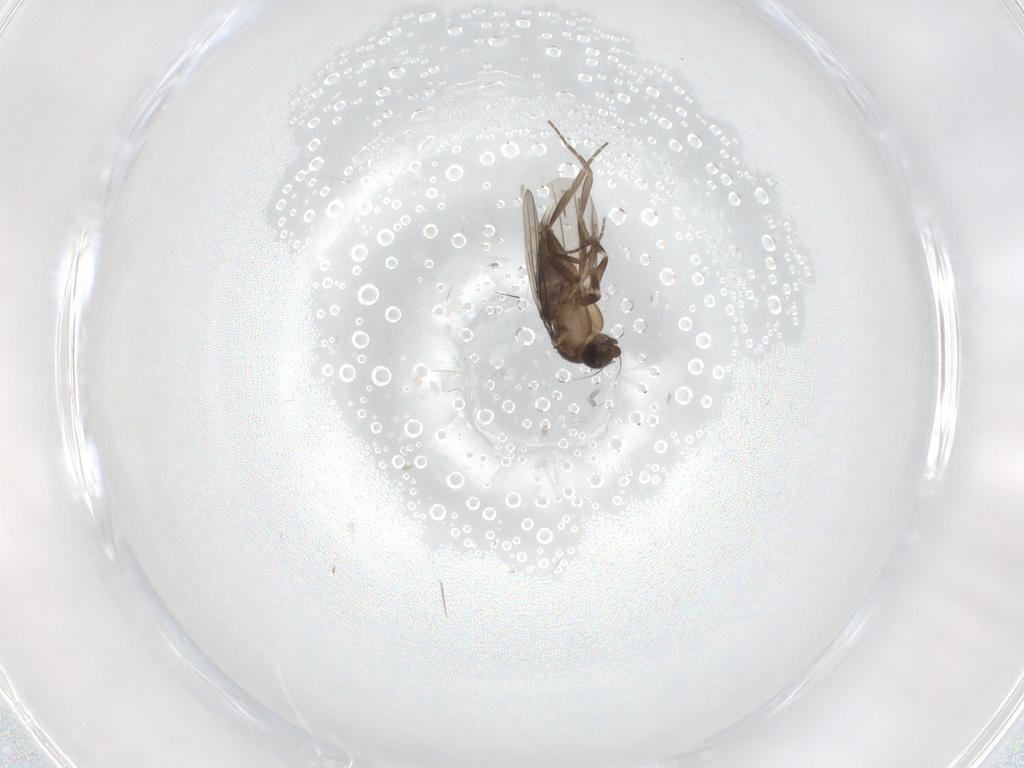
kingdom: Animalia
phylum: Arthropoda
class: Insecta
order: Diptera
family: Phoridae
